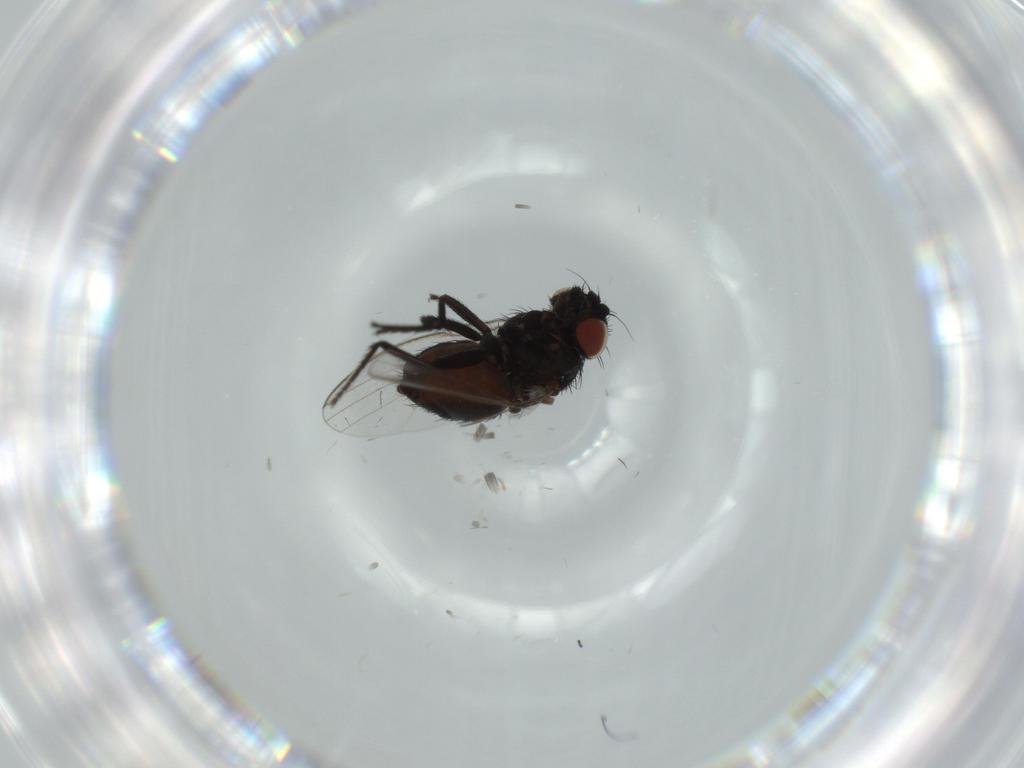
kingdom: Animalia
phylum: Arthropoda
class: Insecta
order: Diptera
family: Milichiidae
